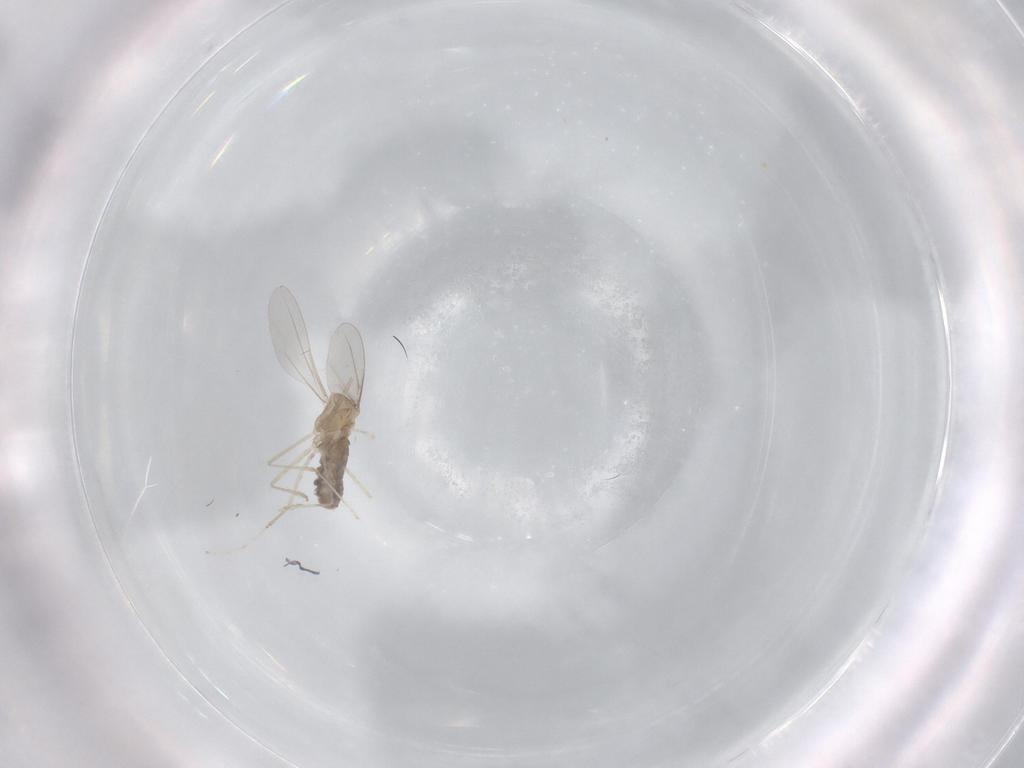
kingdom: Animalia
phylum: Arthropoda
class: Insecta
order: Diptera
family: Cecidomyiidae
